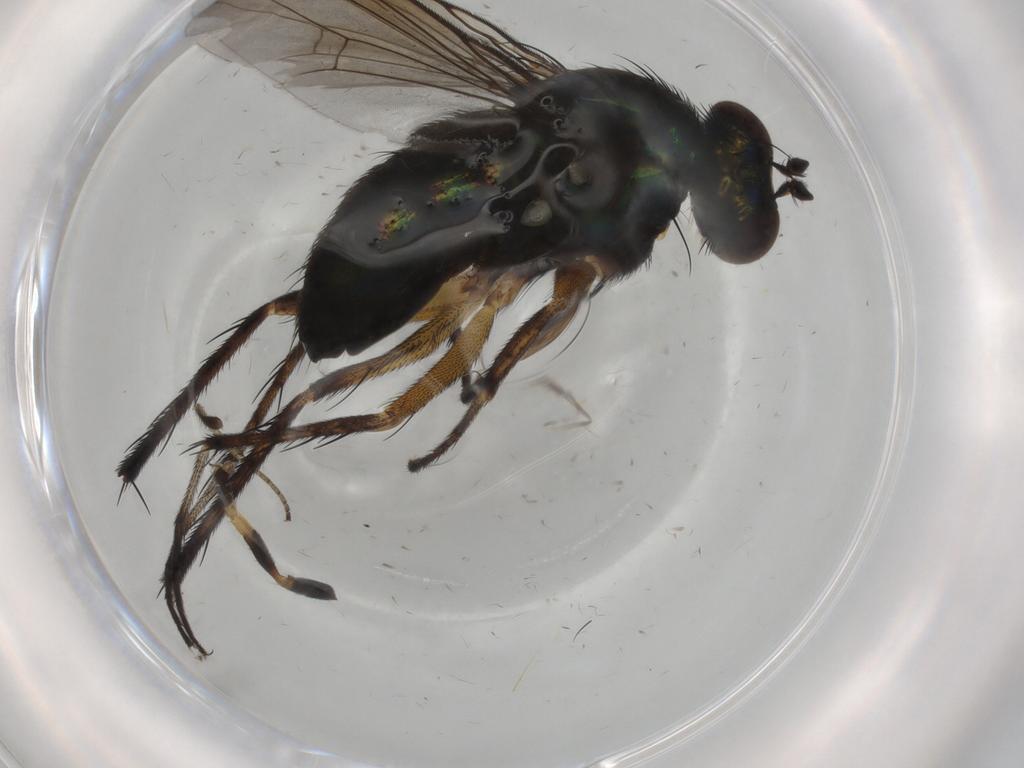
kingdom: Animalia
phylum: Arthropoda
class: Insecta
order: Diptera
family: Dolichopodidae
